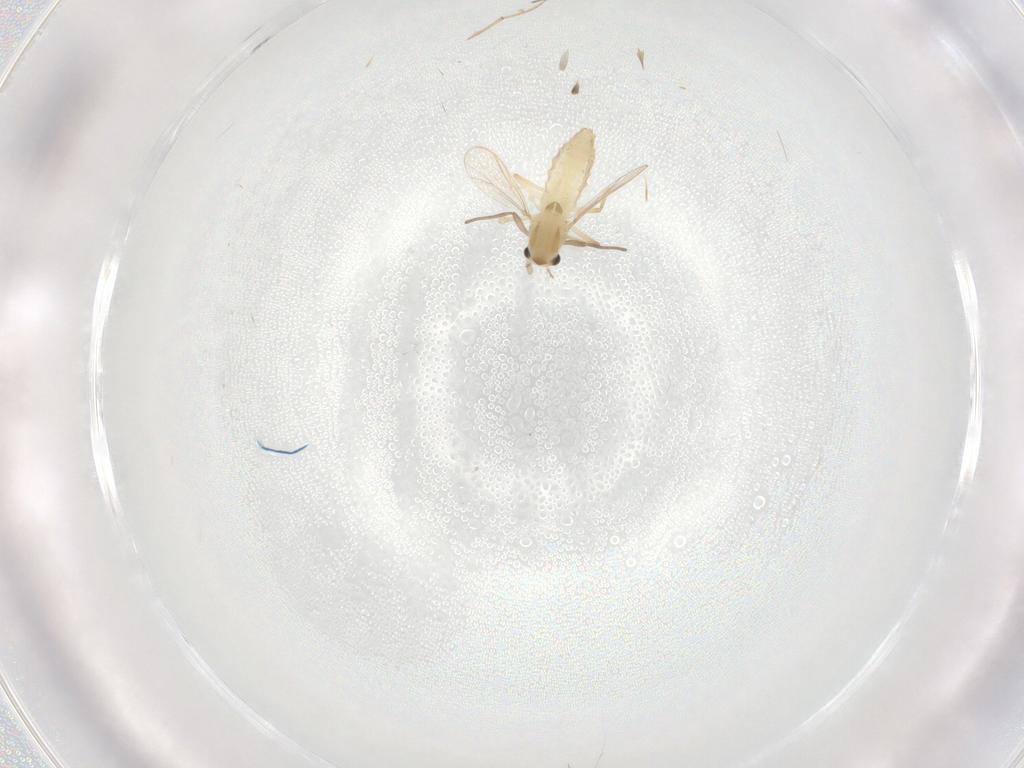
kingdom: Animalia
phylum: Arthropoda
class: Insecta
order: Diptera
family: Chironomidae
